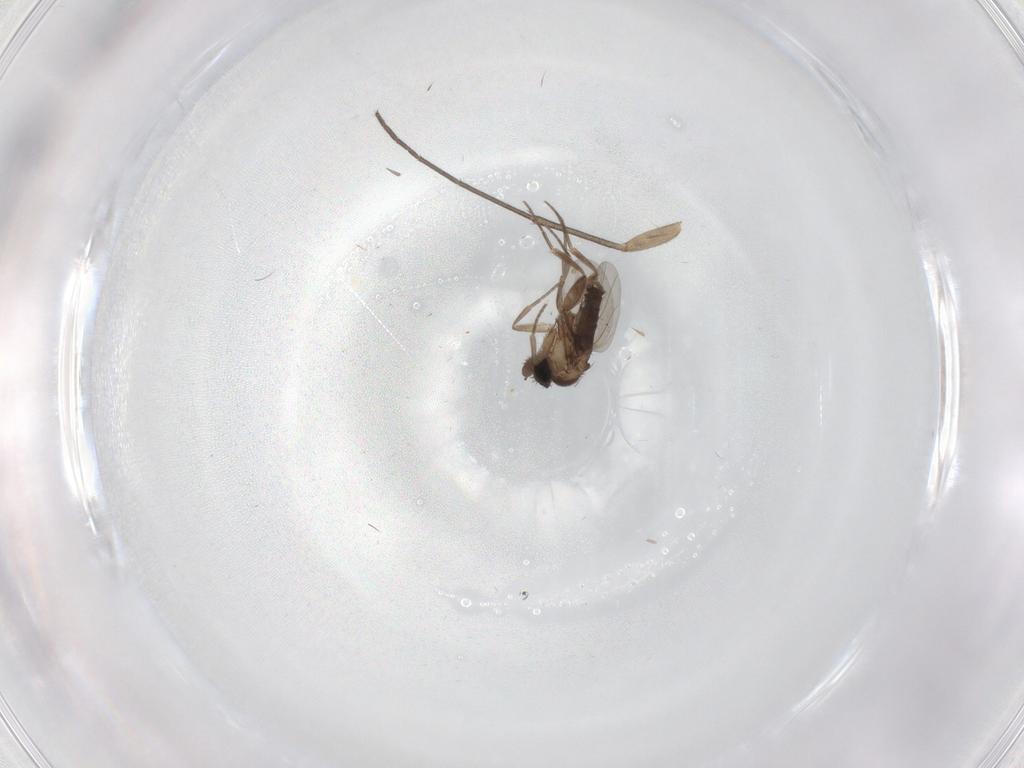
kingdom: Animalia
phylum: Arthropoda
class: Insecta
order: Diptera
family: Mycetophilidae
